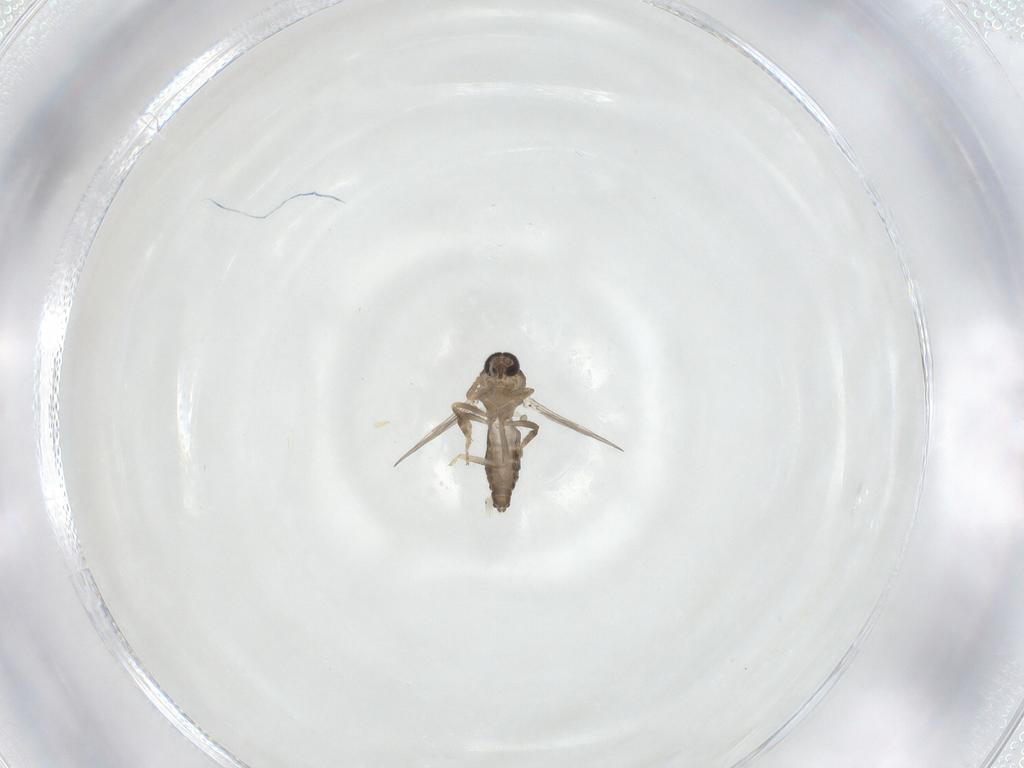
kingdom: Animalia
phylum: Arthropoda
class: Insecta
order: Diptera
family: Ceratopogonidae
